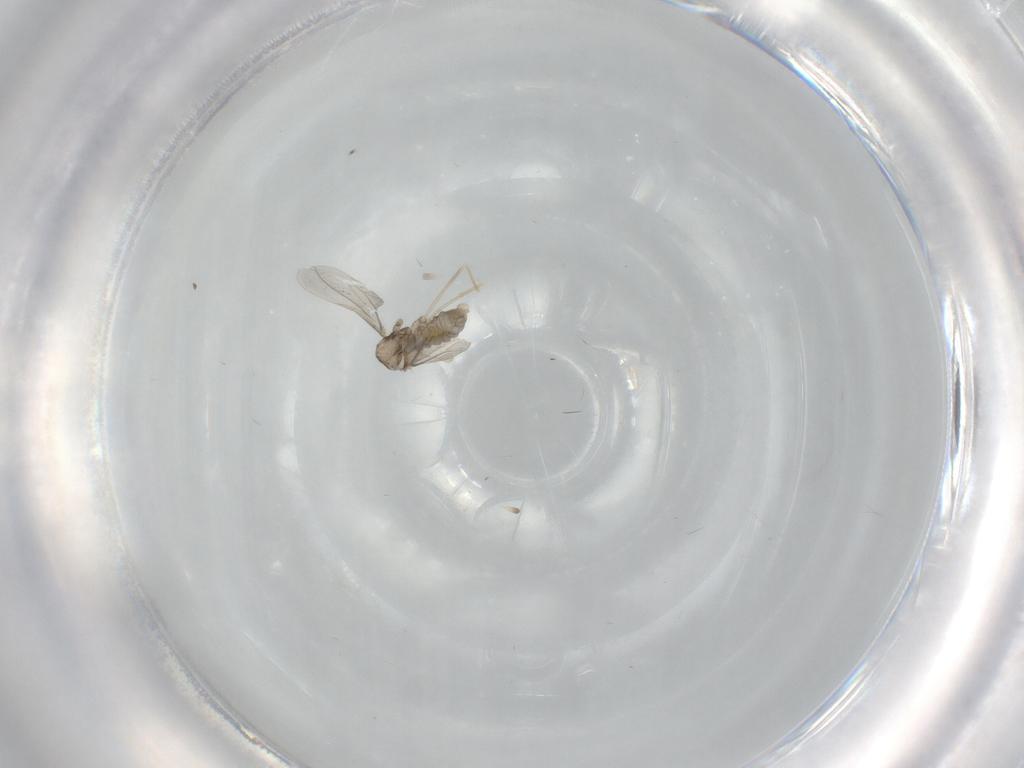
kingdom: Animalia
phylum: Arthropoda
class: Insecta
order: Diptera
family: Cecidomyiidae
